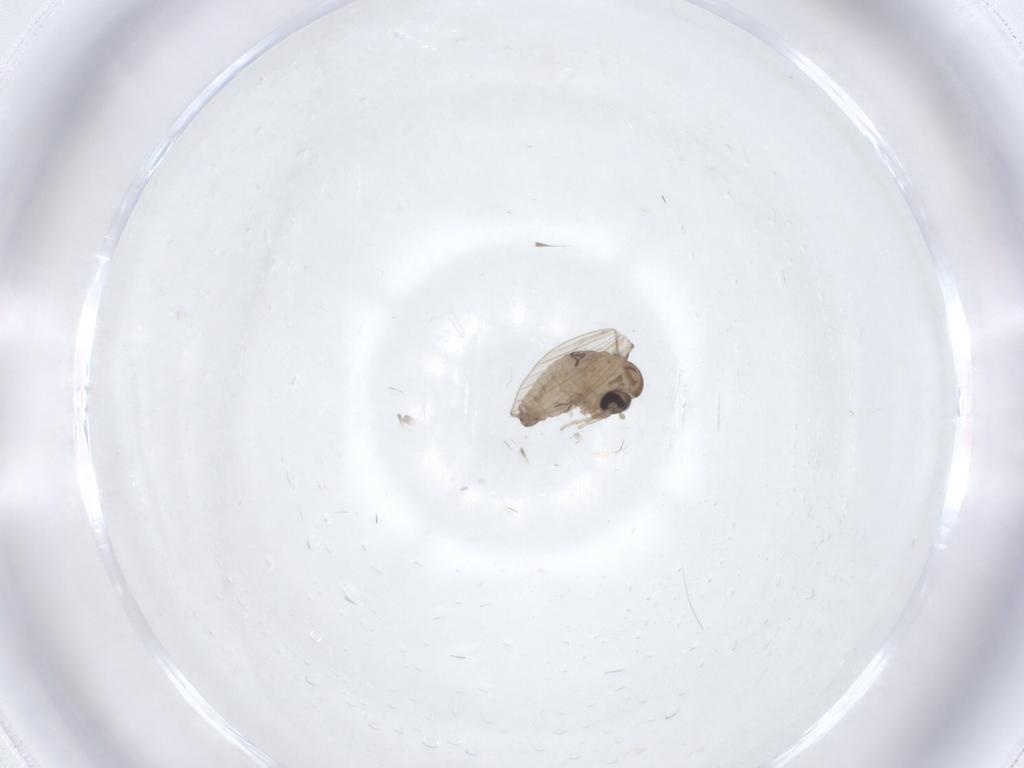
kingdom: Animalia
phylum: Arthropoda
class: Insecta
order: Diptera
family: Psychodidae
